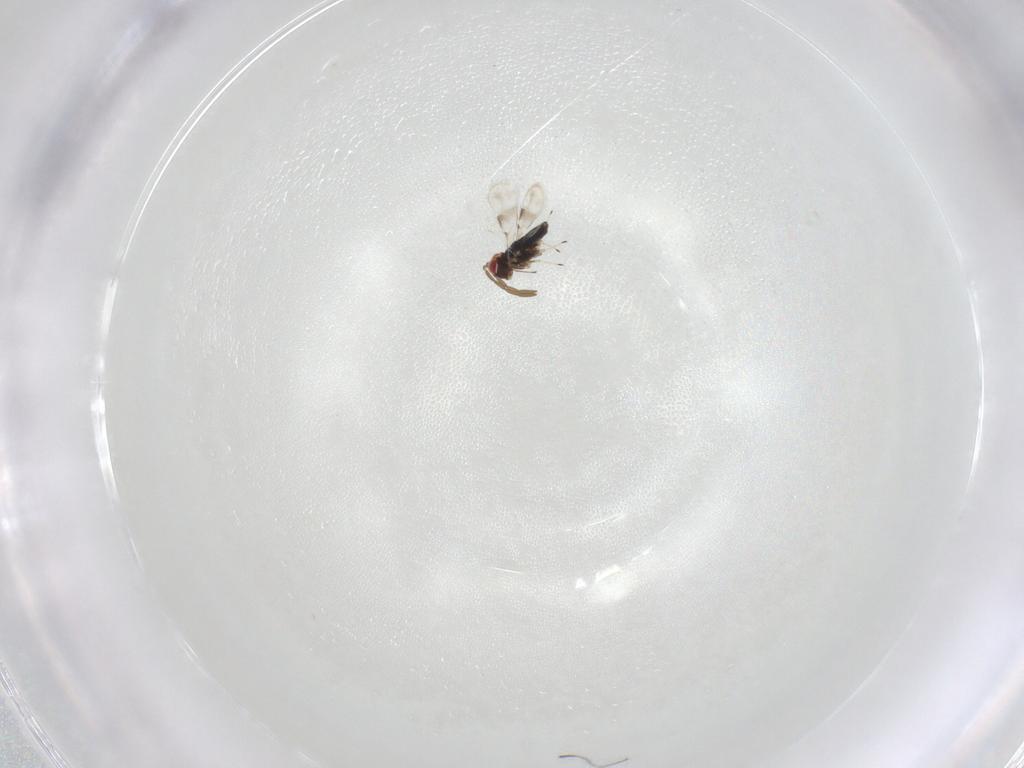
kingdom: Animalia
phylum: Arthropoda
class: Insecta
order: Hymenoptera
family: Azotidae
